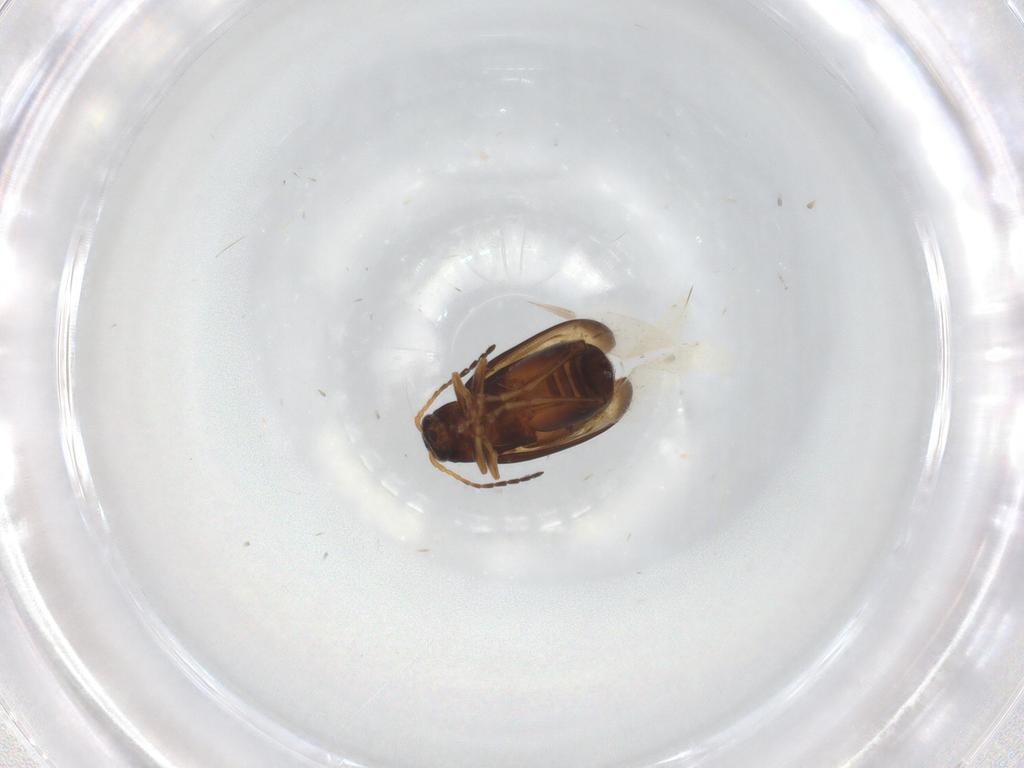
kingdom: Animalia
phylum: Arthropoda
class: Insecta
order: Coleoptera
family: Chrysomelidae
